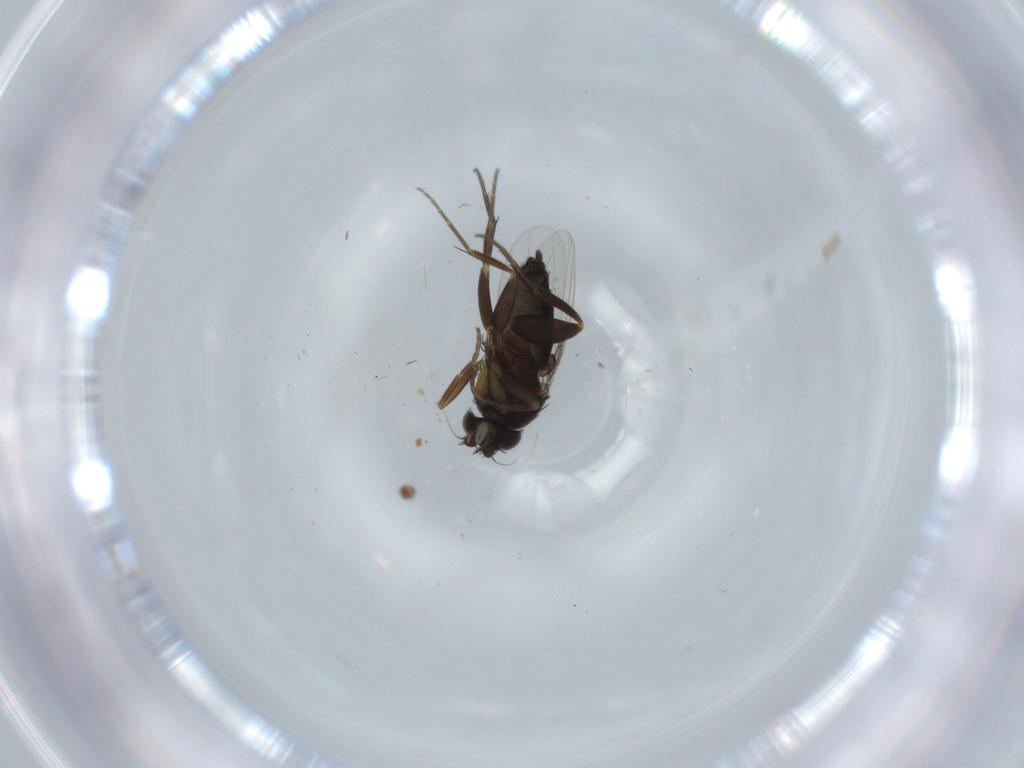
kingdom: Animalia
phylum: Arthropoda
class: Insecta
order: Diptera
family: Phoridae
